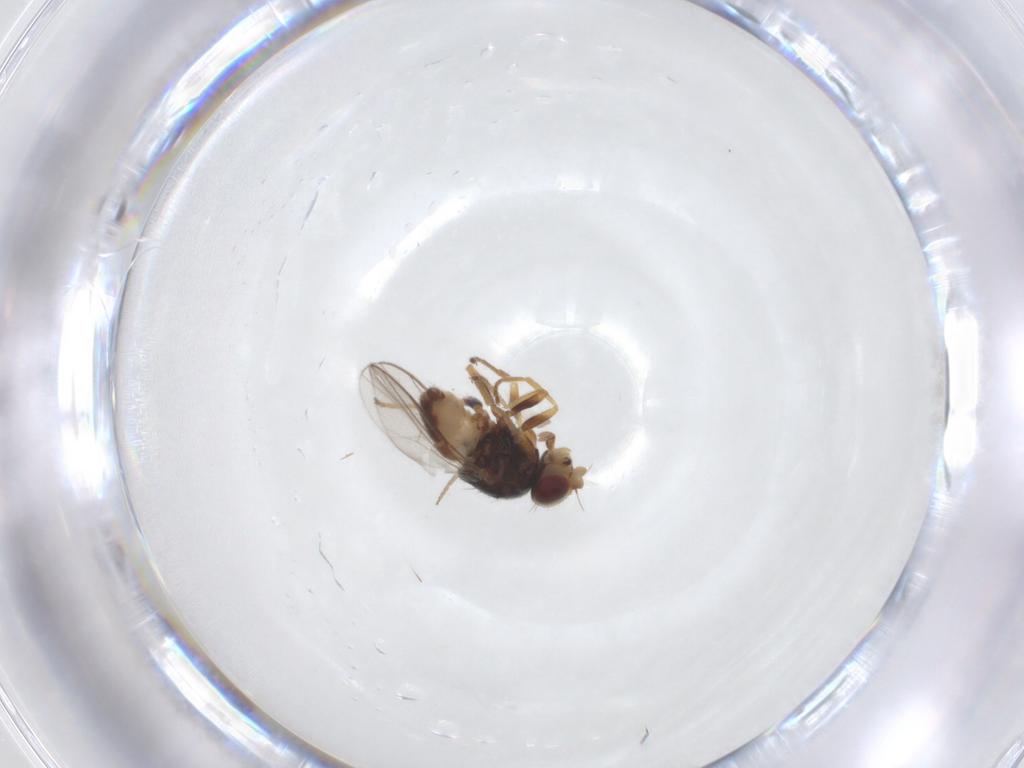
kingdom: Animalia
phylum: Arthropoda
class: Insecta
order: Diptera
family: Chloropidae
